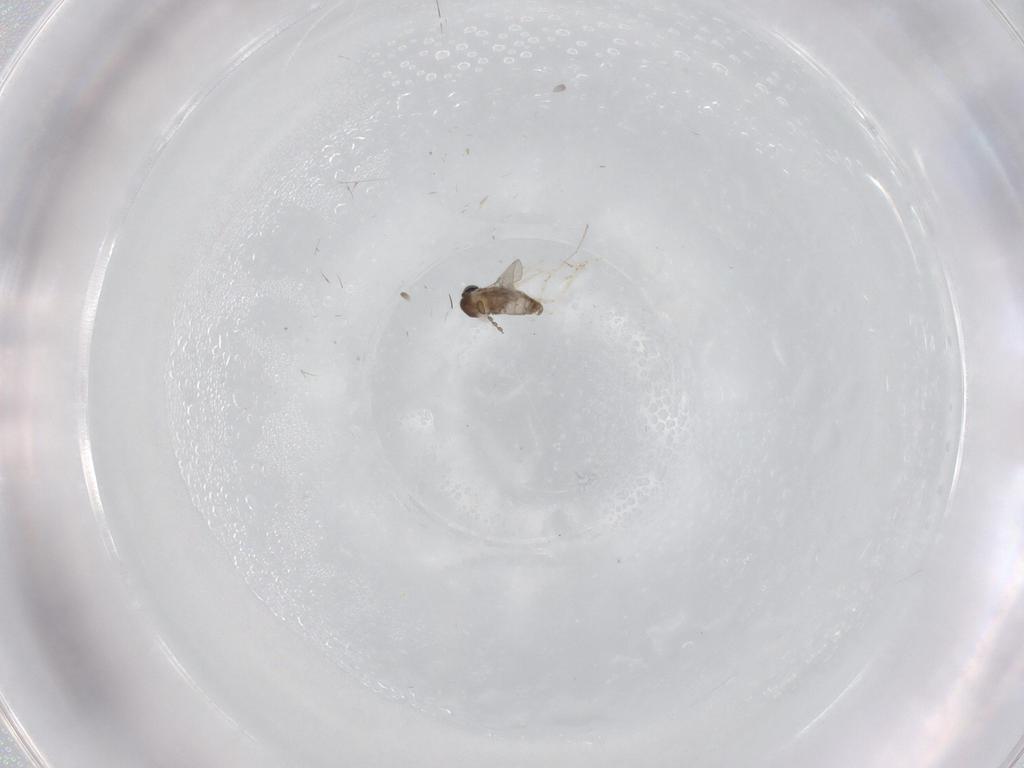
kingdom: Animalia
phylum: Arthropoda
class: Insecta
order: Diptera
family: Cecidomyiidae
